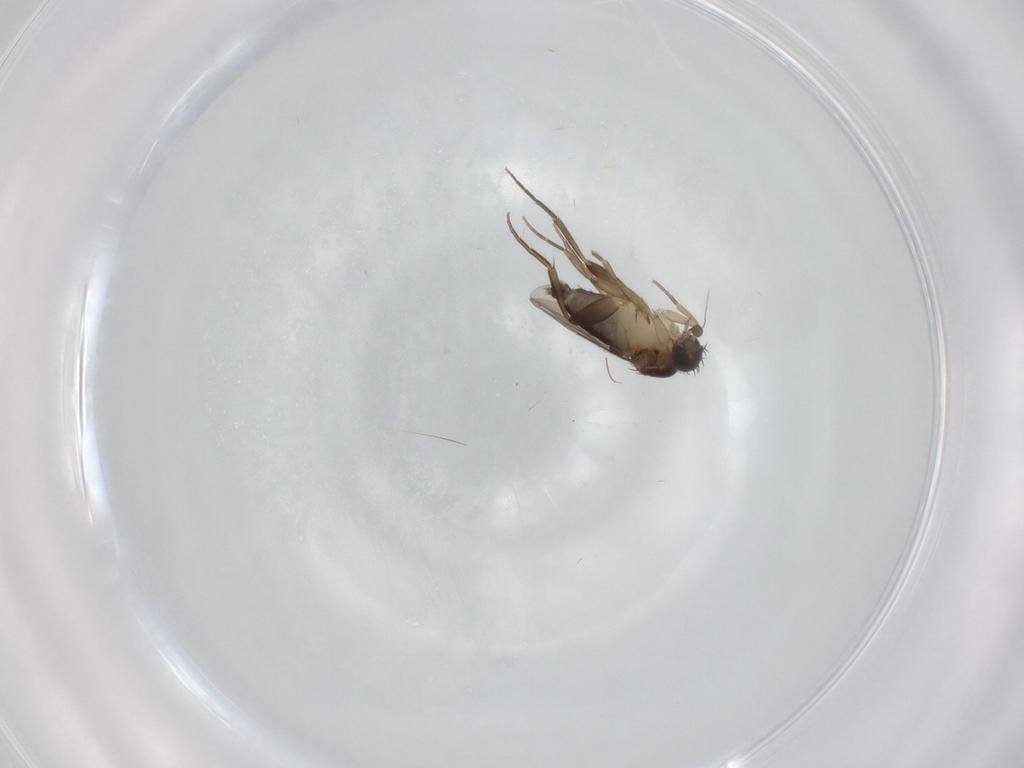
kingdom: Animalia
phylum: Arthropoda
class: Insecta
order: Diptera
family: Phoridae
